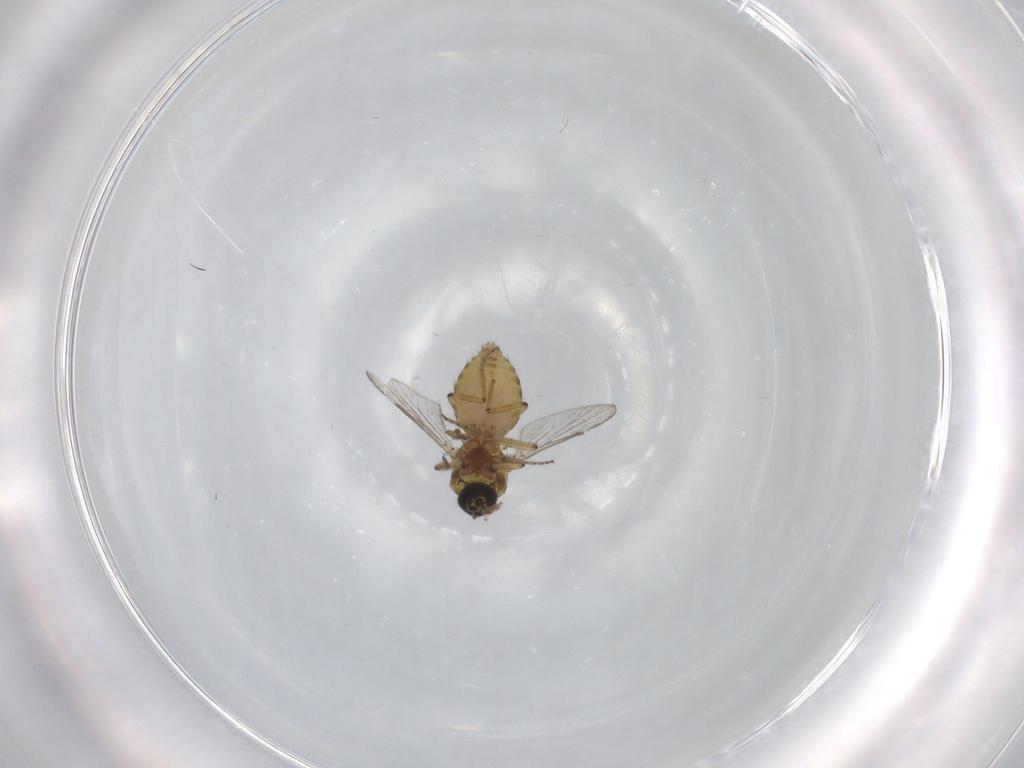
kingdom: Animalia
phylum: Arthropoda
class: Insecta
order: Diptera
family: Ceratopogonidae
